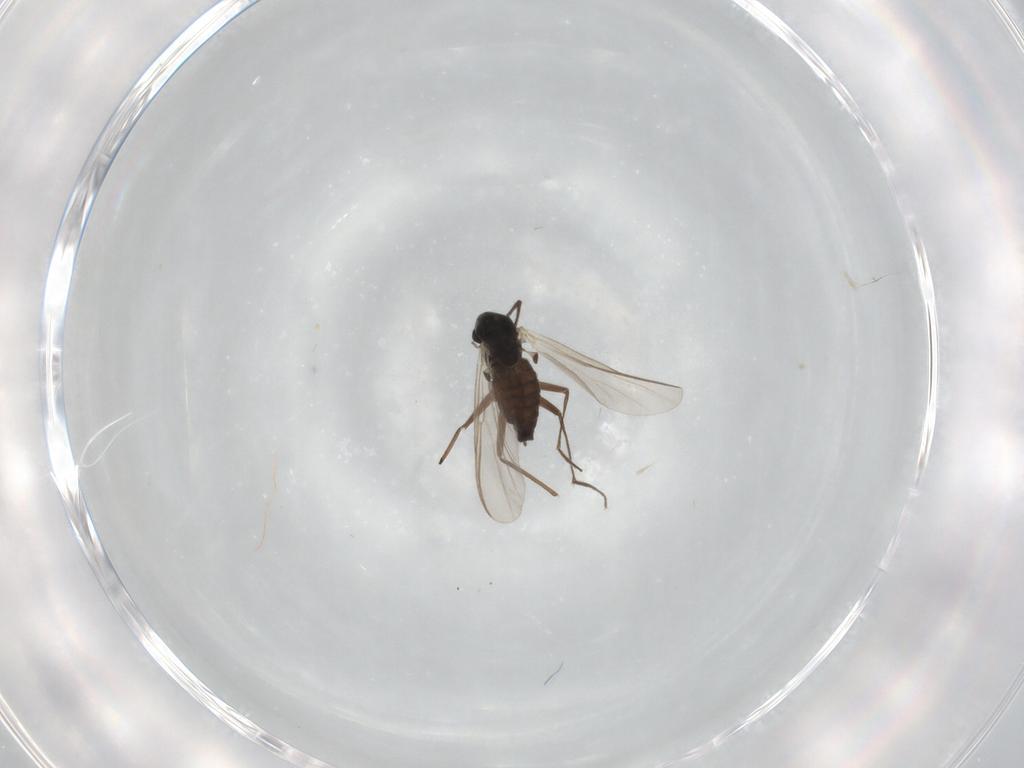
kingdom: Animalia
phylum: Arthropoda
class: Insecta
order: Diptera
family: Chironomidae
